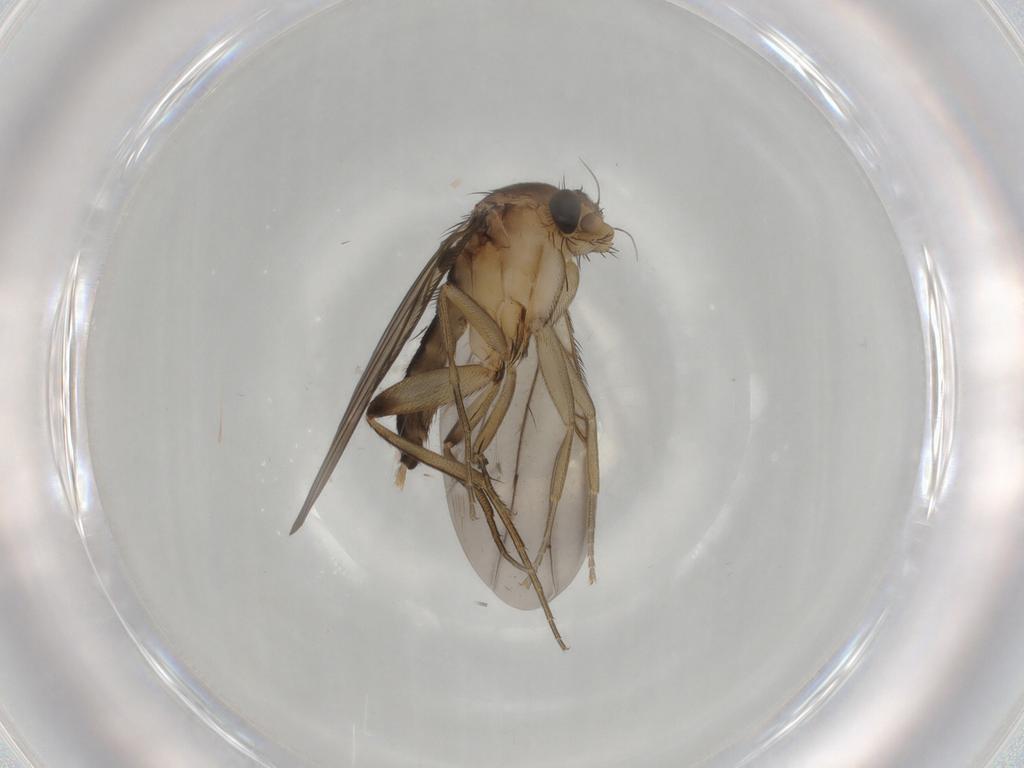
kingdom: Animalia
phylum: Arthropoda
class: Insecta
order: Diptera
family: Phoridae
